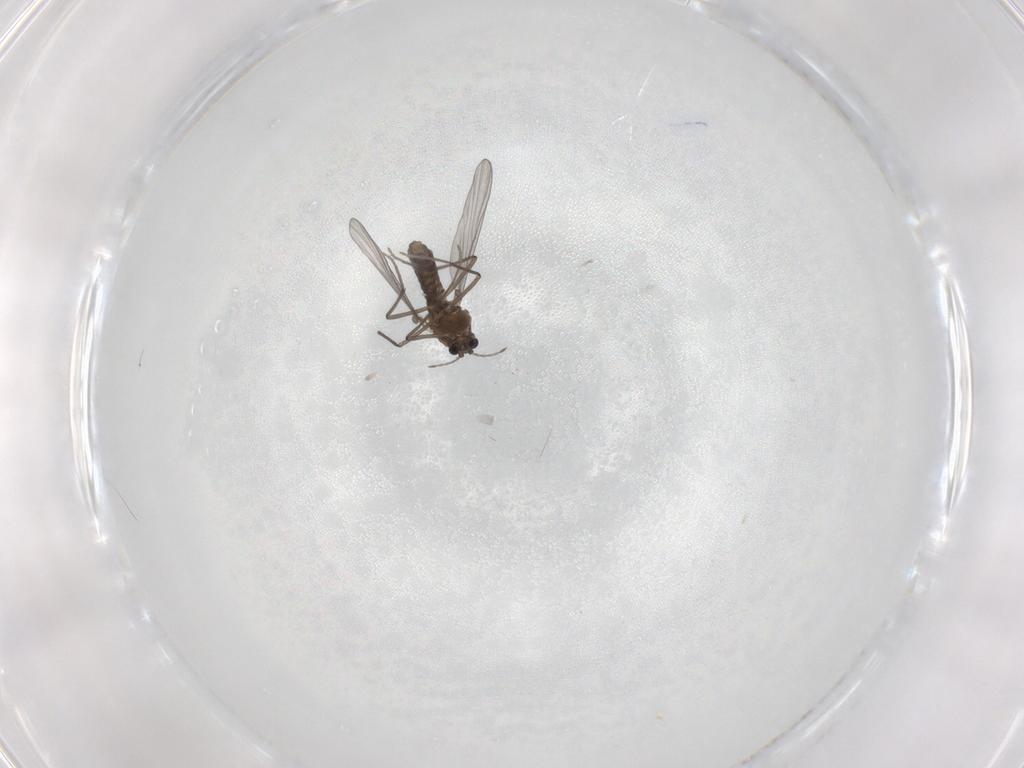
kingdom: Animalia
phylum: Arthropoda
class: Insecta
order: Diptera
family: Chironomidae
